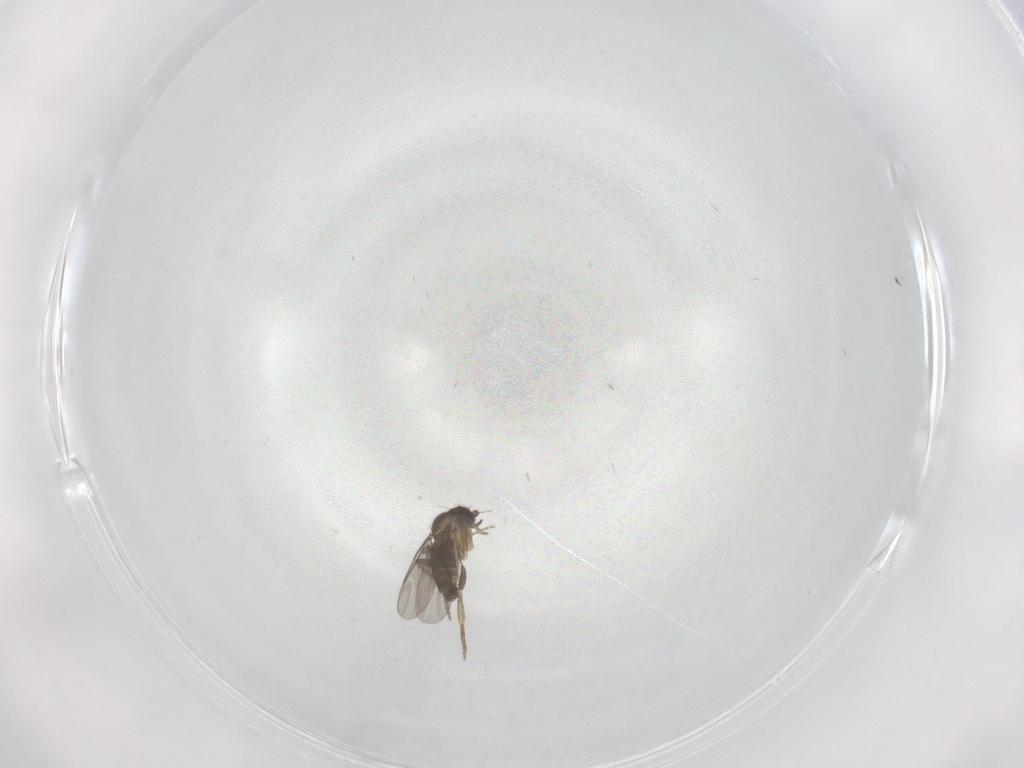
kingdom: Animalia
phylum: Arthropoda
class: Insecta
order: Diptera
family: Sciaridae
